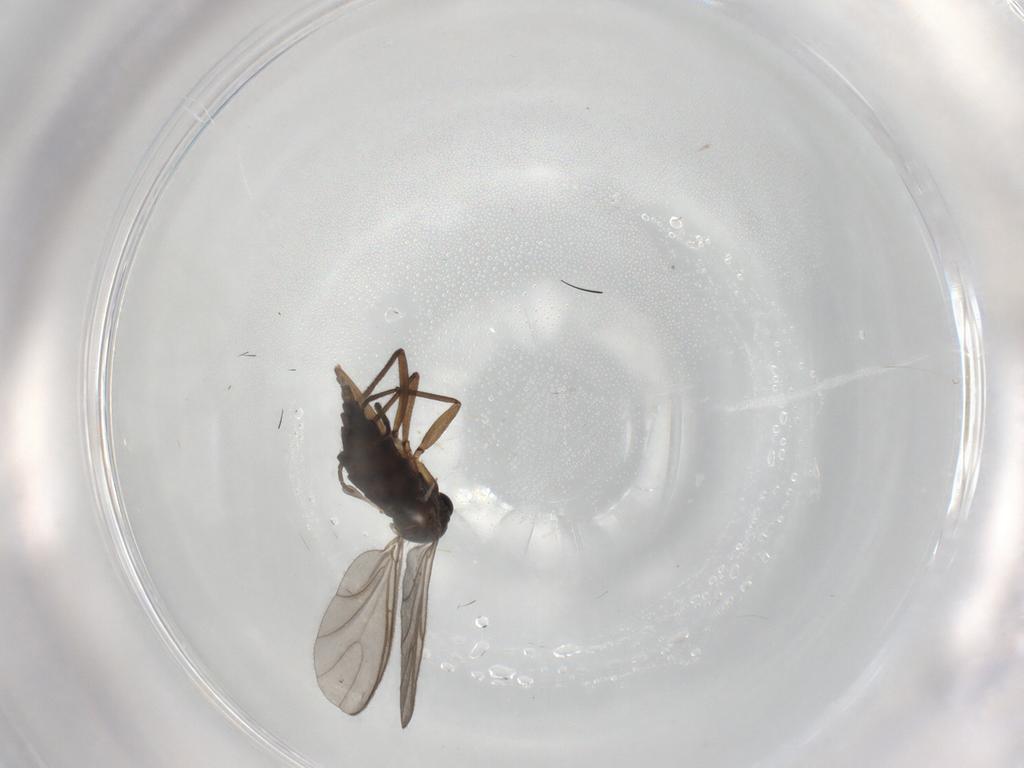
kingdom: Animalia
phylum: Arthropoda
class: Insecta
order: Diptera
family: Sciaridae
